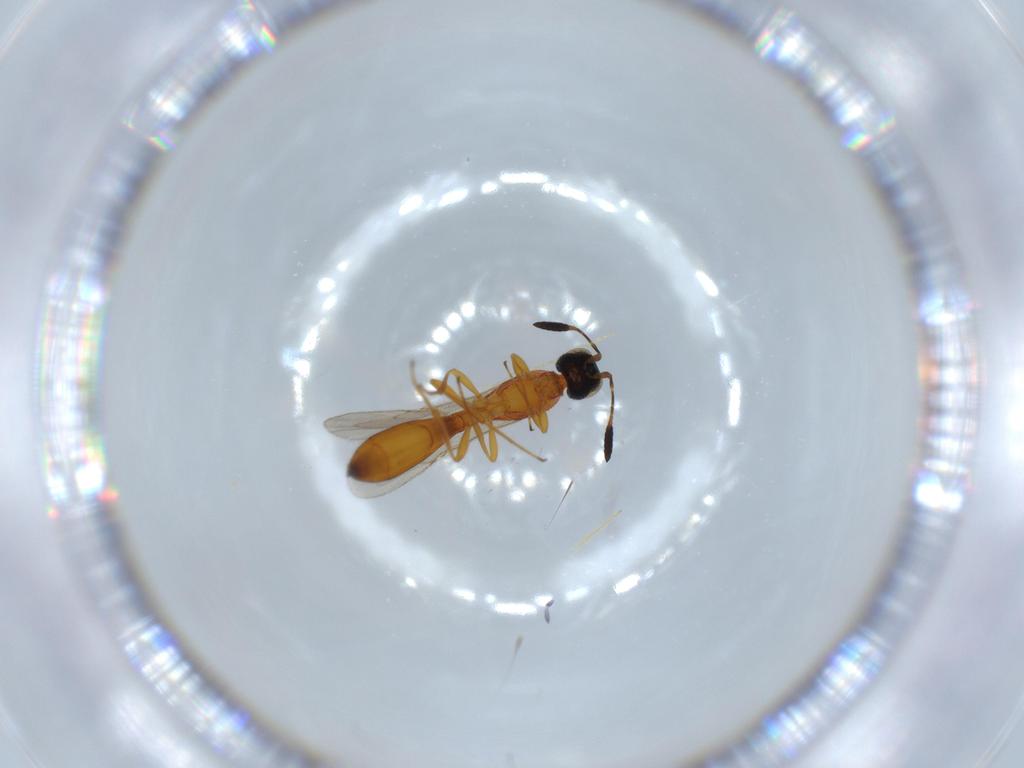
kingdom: Animalia
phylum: Arthropoda
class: Insecta
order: Hymenoptera
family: Scelionidae
